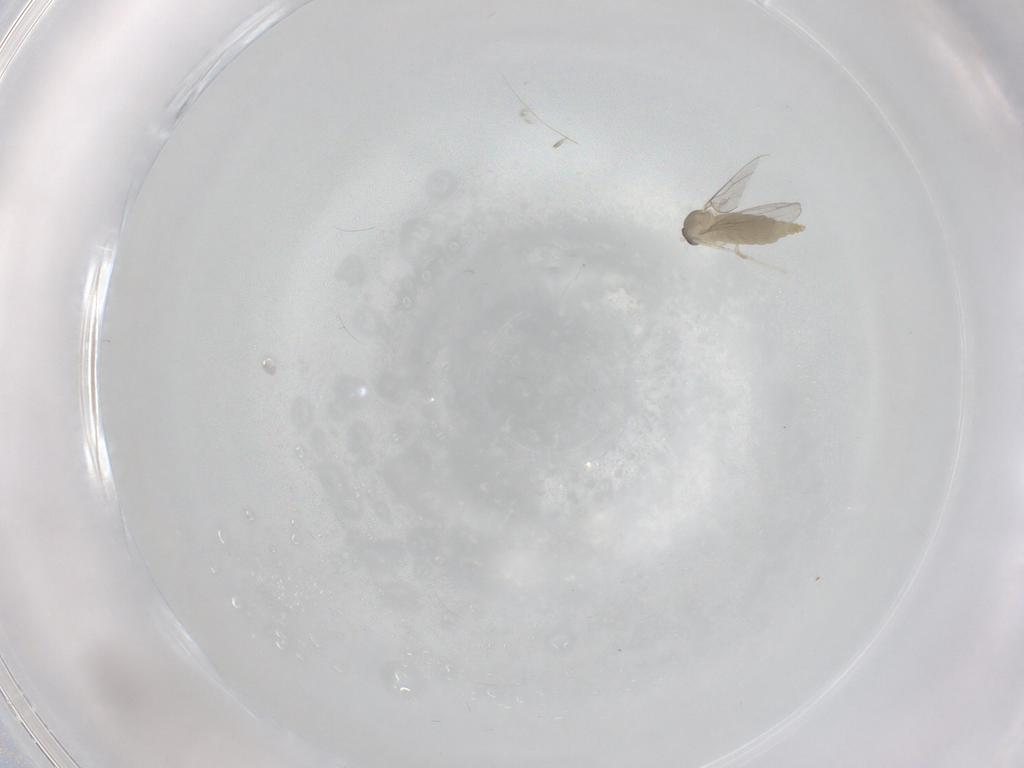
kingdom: Animalia
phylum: Arthropoda
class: Insecta
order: Diptera
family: Cecidomyiidae
